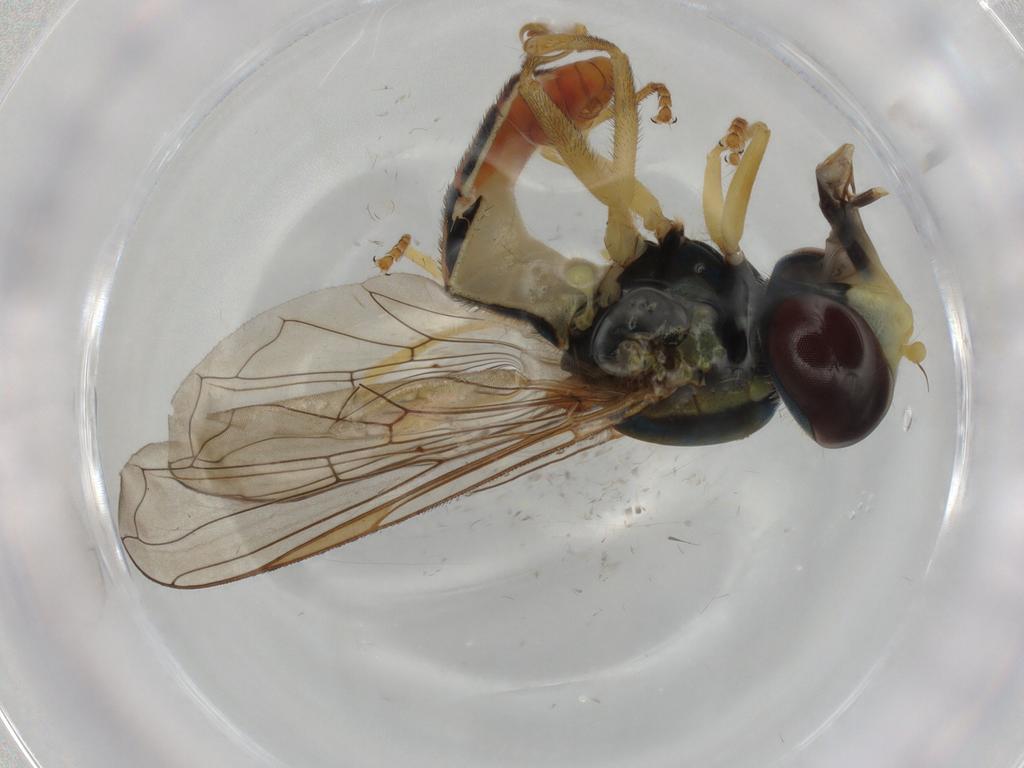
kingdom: Animalia
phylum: Arthropoda
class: Insecta
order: Diptera
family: Syrphidae
